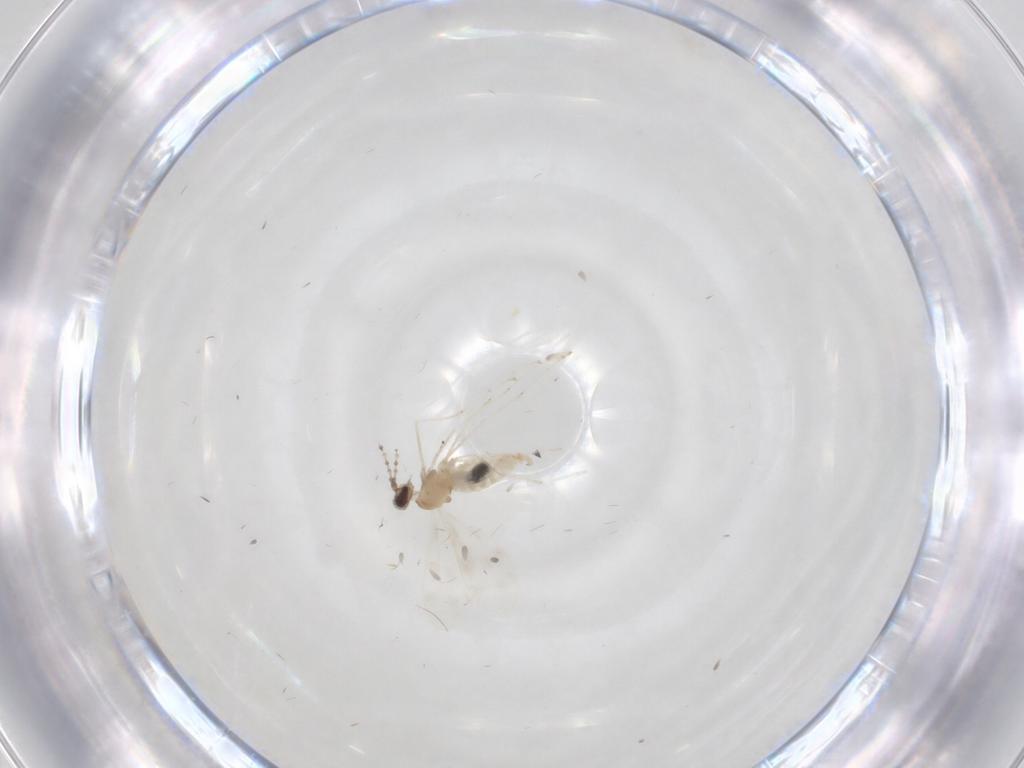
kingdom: Animalia
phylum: Arthropoda
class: Insecta
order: Diptera
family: Cecidomyiidae
